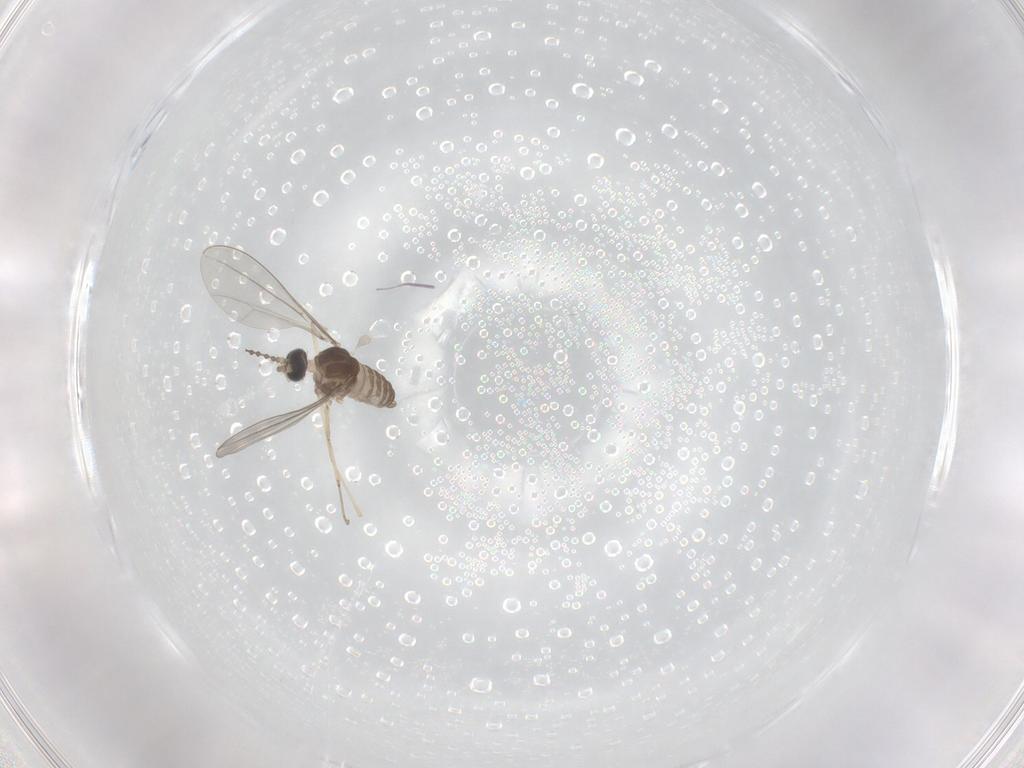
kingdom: Animalia
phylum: Arthropoda
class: Insecta
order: Diptera
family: Cecidomyiidae
